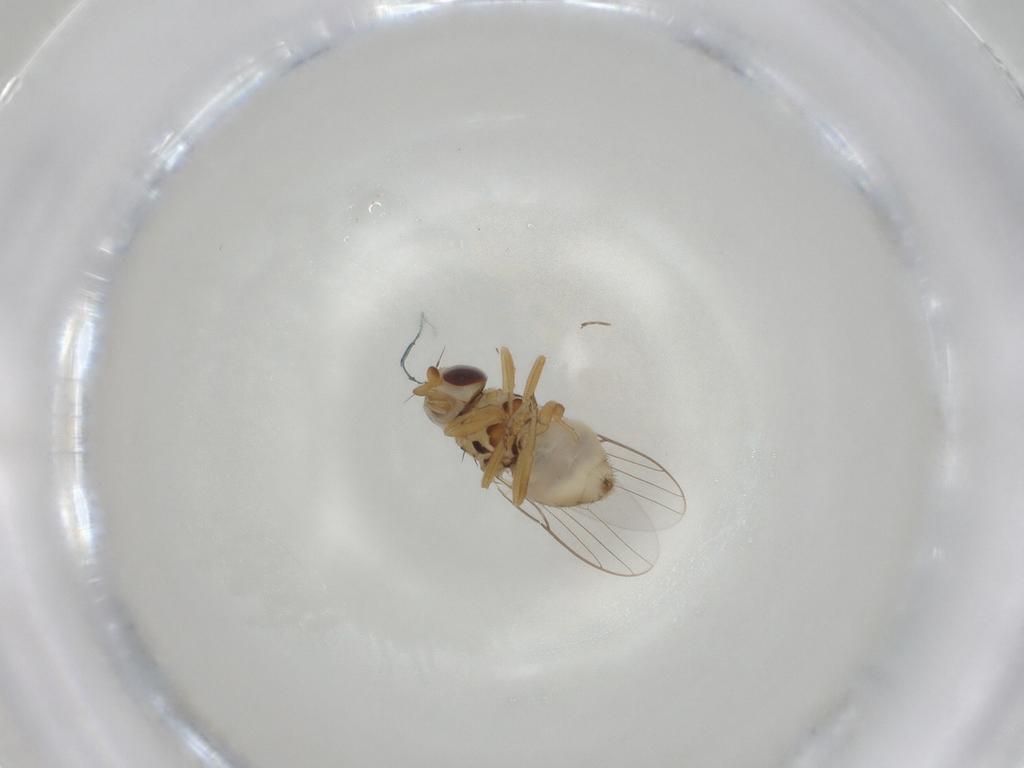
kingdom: Animalia
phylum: Arthropoda
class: Insecta
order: Diptera
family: Chloropidae
